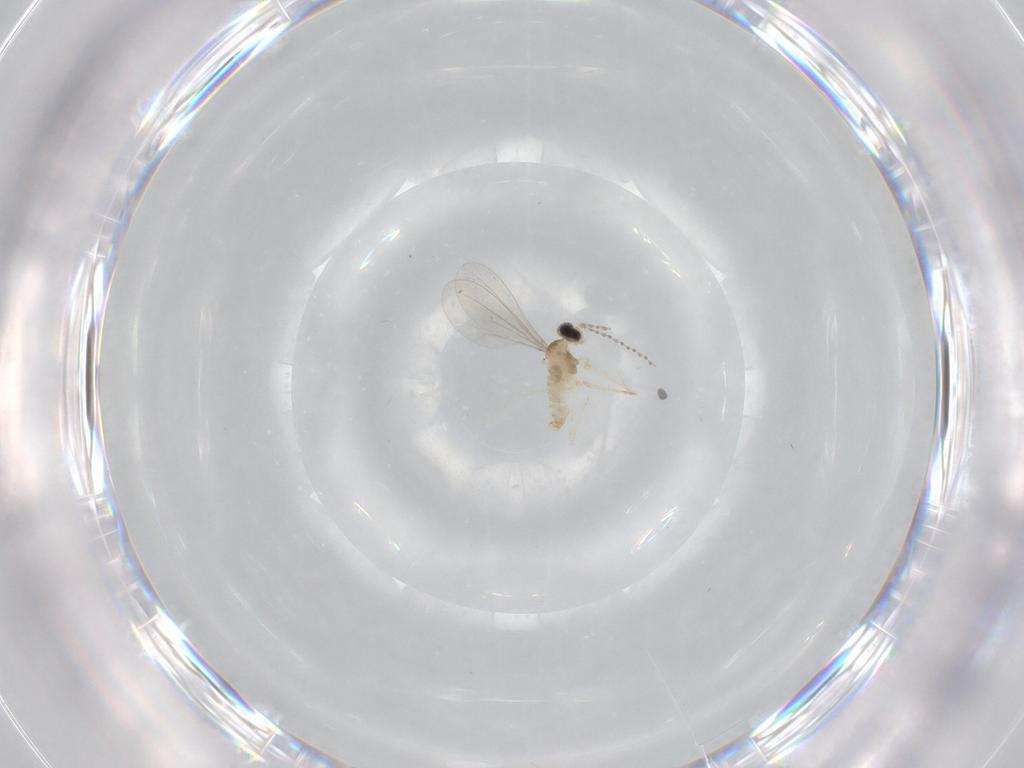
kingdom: Animalia
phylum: Arthropoda
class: Insecta
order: Diptera
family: Cecidomyiidae
